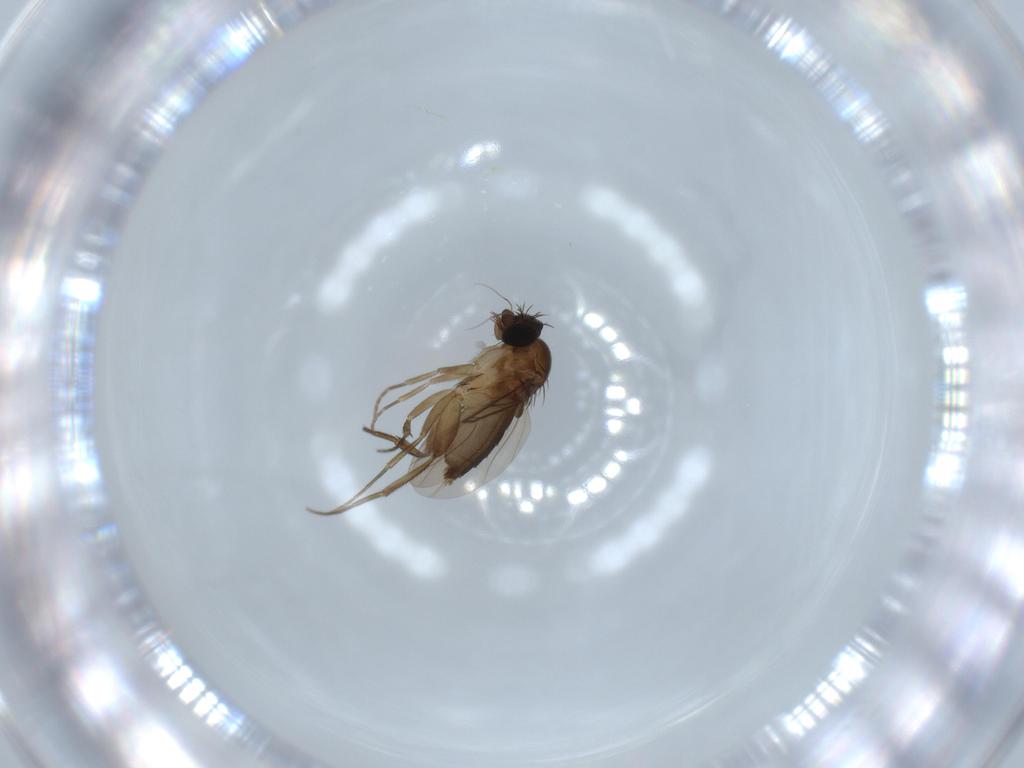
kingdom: Animalia
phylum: Arthropoda
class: Insecta
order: Diptera
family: Phoridae
